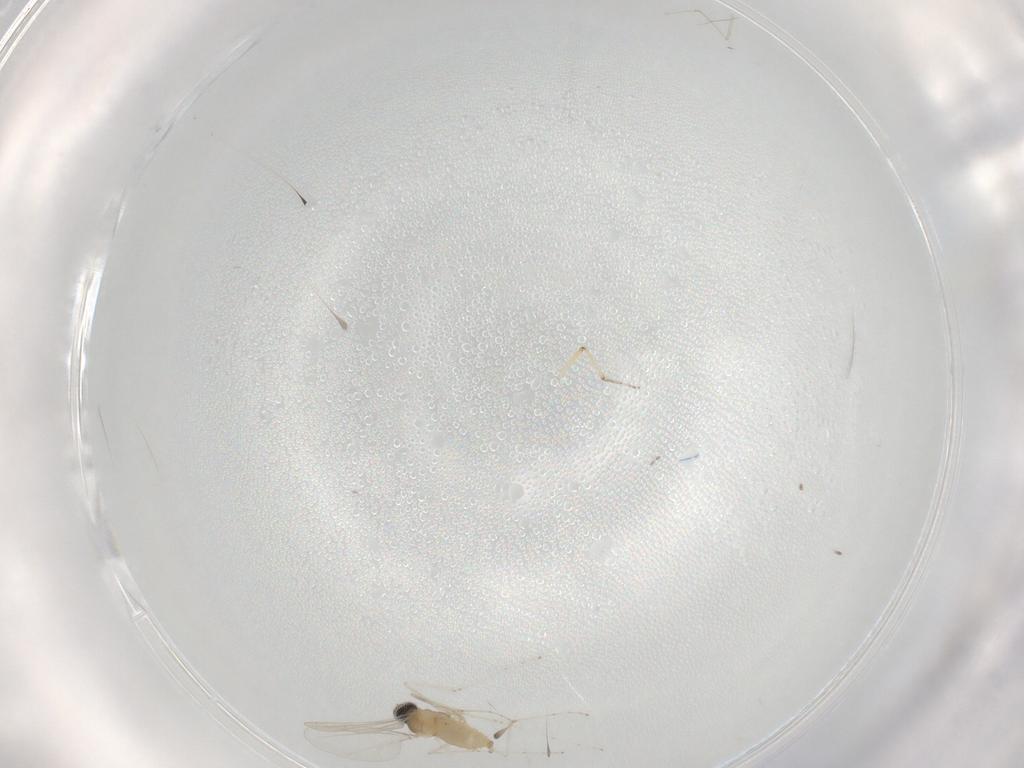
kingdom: Animalia
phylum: Arthropoda
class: Insecta
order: Diptera
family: Cecidomyiidae
